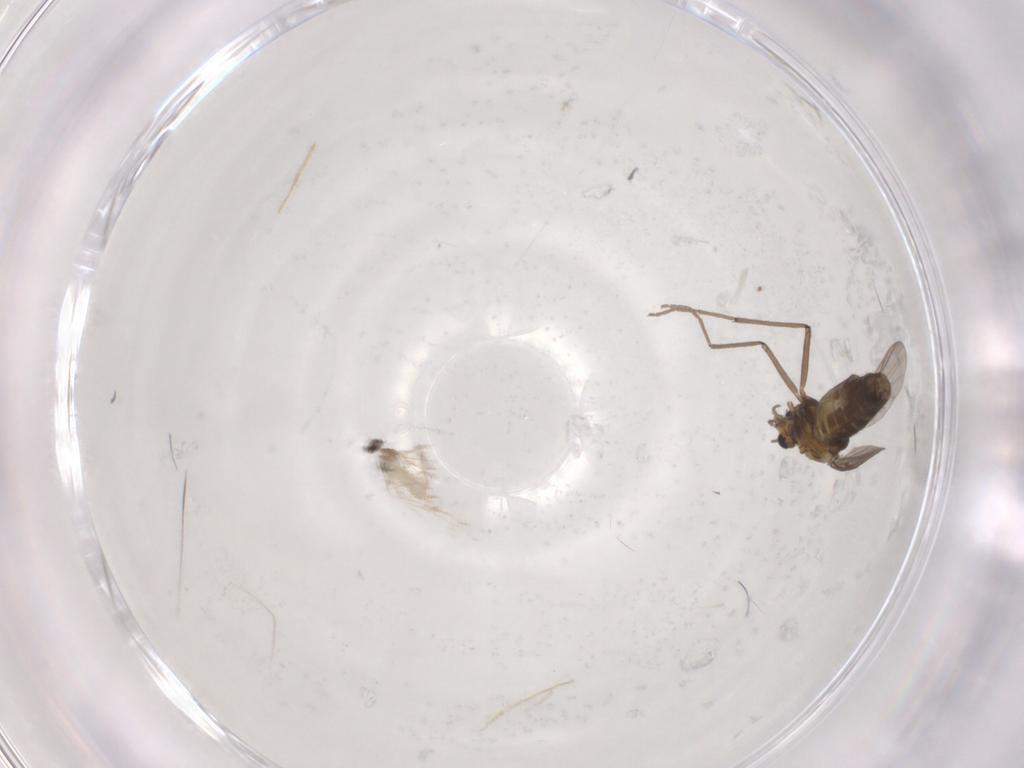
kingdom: Animalia
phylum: Arthropoda
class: Insecta
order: Diptera
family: Chironomidae
